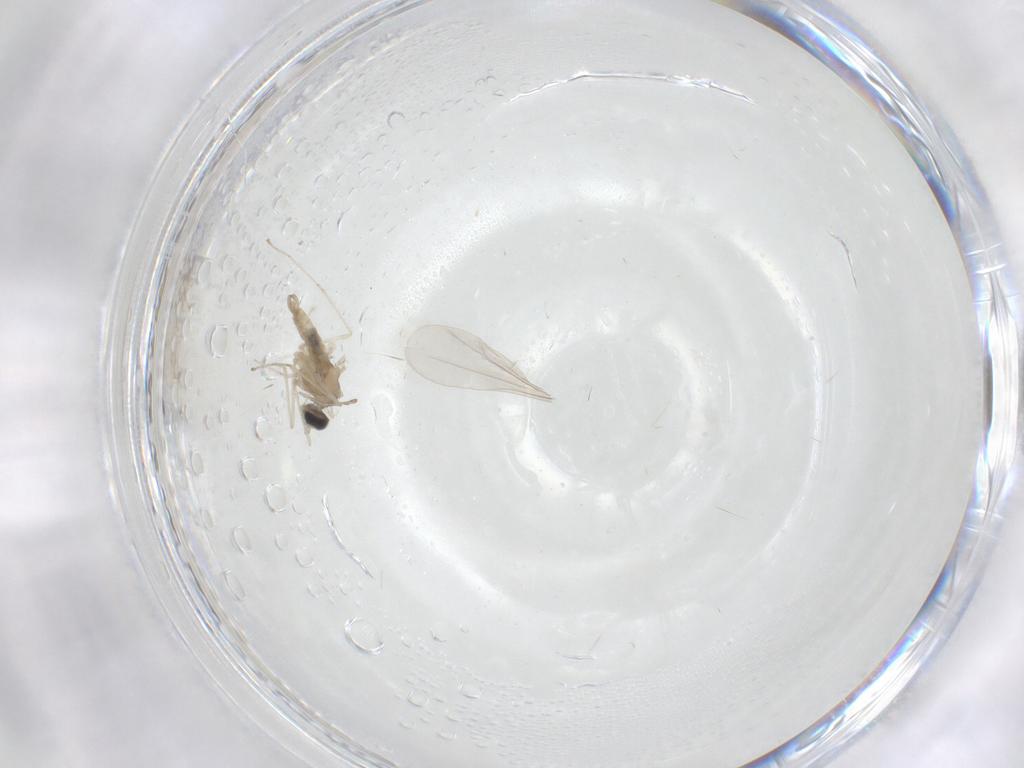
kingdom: Animalia
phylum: Arthropoda
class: Insecta
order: Diptera
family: Cecidomyiidae
